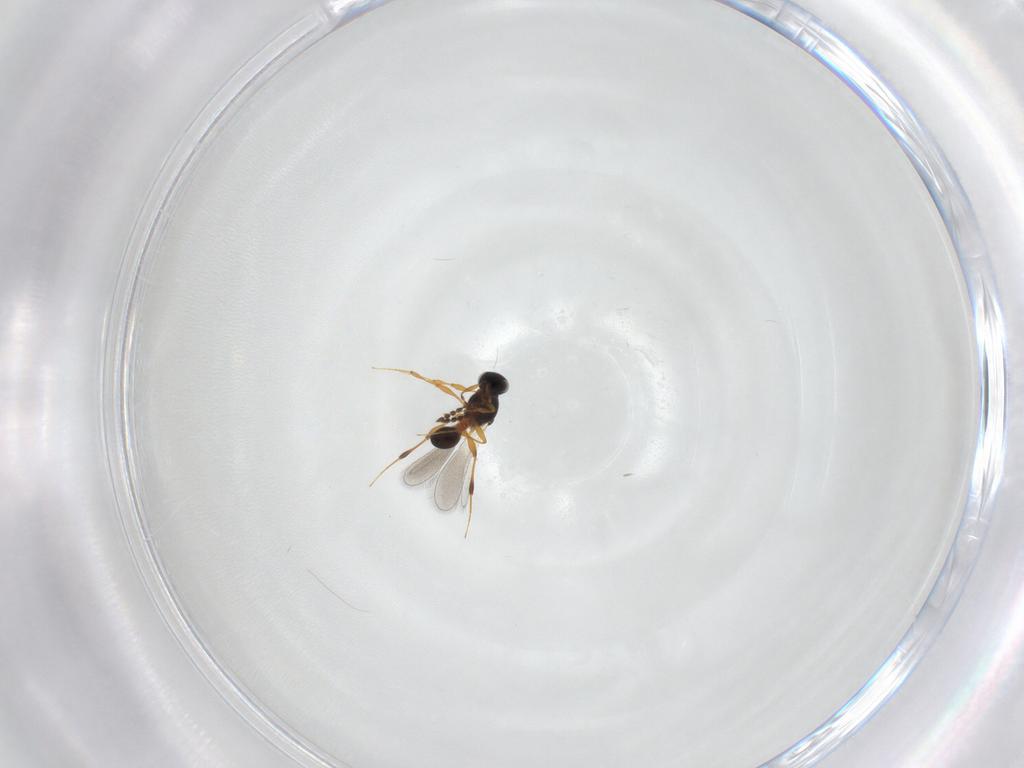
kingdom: Animalia
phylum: Arthropoda
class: Insecta
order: Hymenoptera
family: Platygastridae
